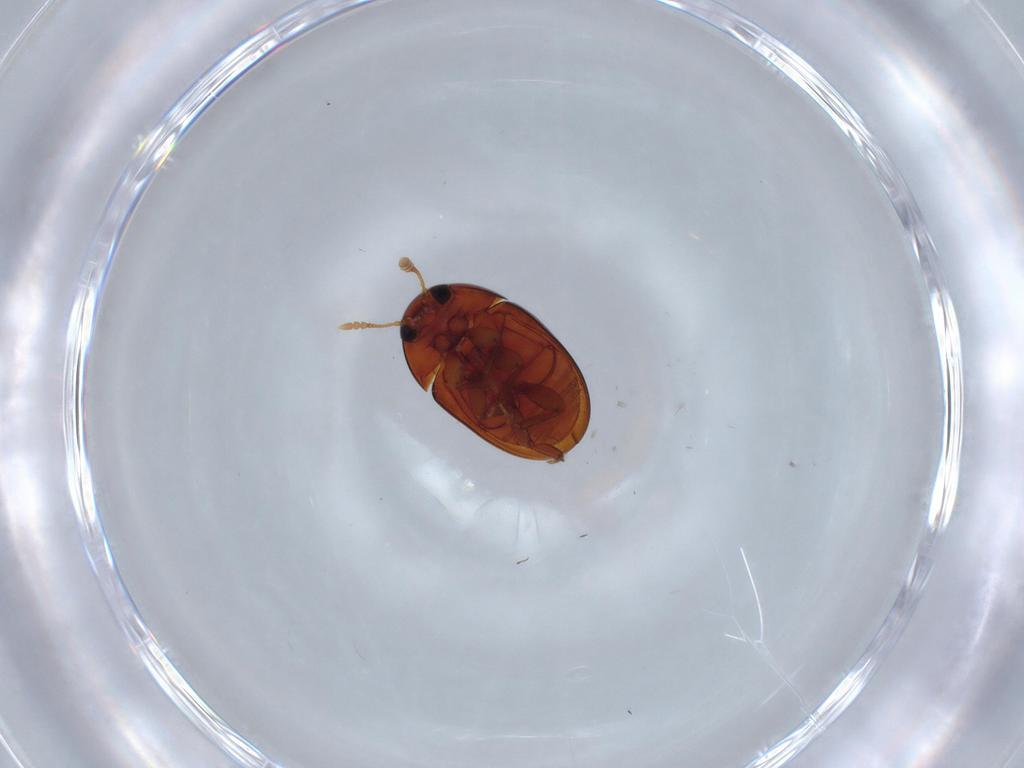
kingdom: Animalia
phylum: Arthropoda
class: Insecta
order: Coleoptera
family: Phalacridae
